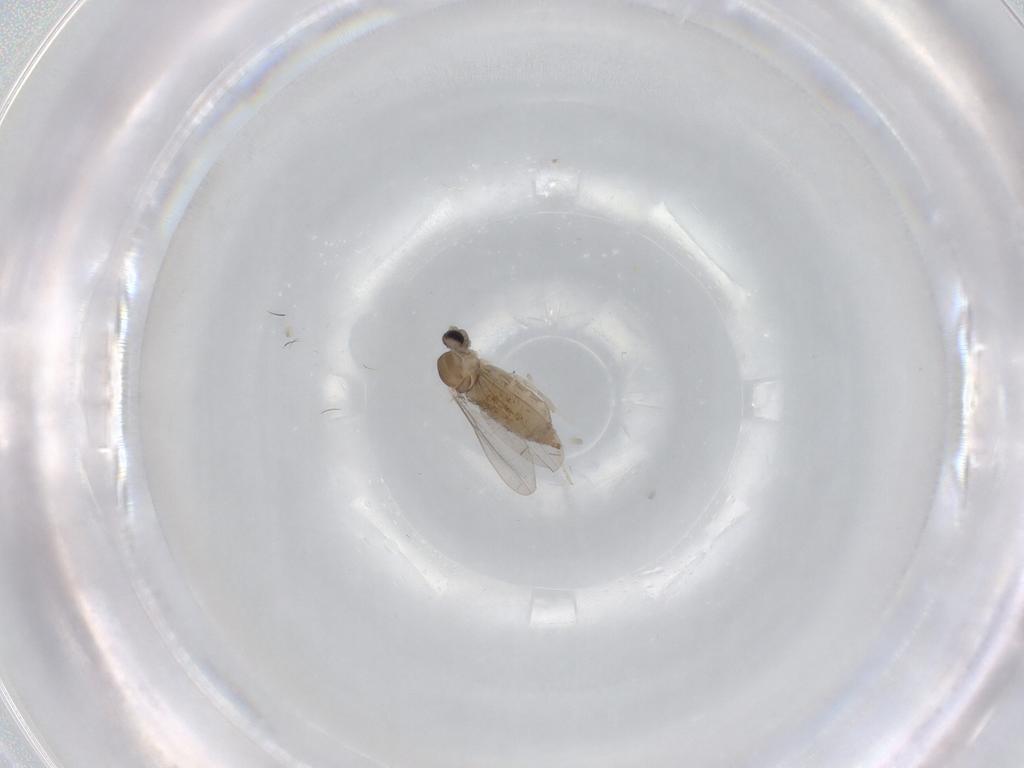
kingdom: Animalia
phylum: Arthropoda
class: Insecta
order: Diptera
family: Cecidomyiidae
